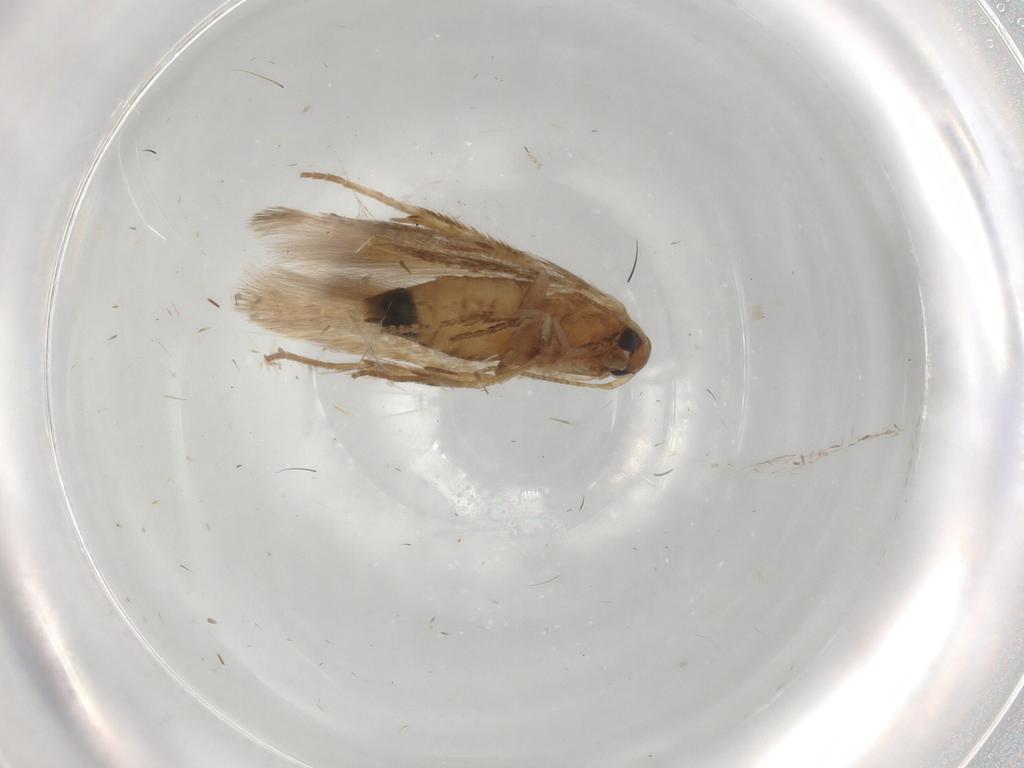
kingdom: Animalia
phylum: Arthropoda
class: Insecta
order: Lepidoptera
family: Cosmopterigidae
